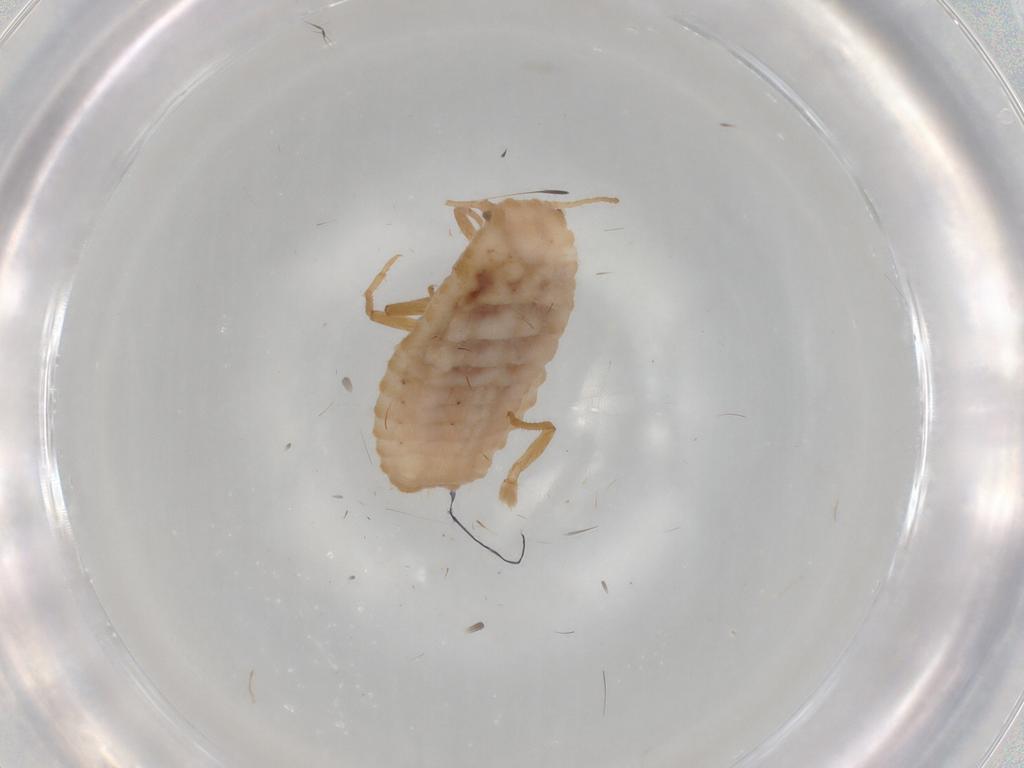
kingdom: Animalia
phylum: Arthropoda
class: Insecta
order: Hemiptera
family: Coccoidea_incertae_sedis
